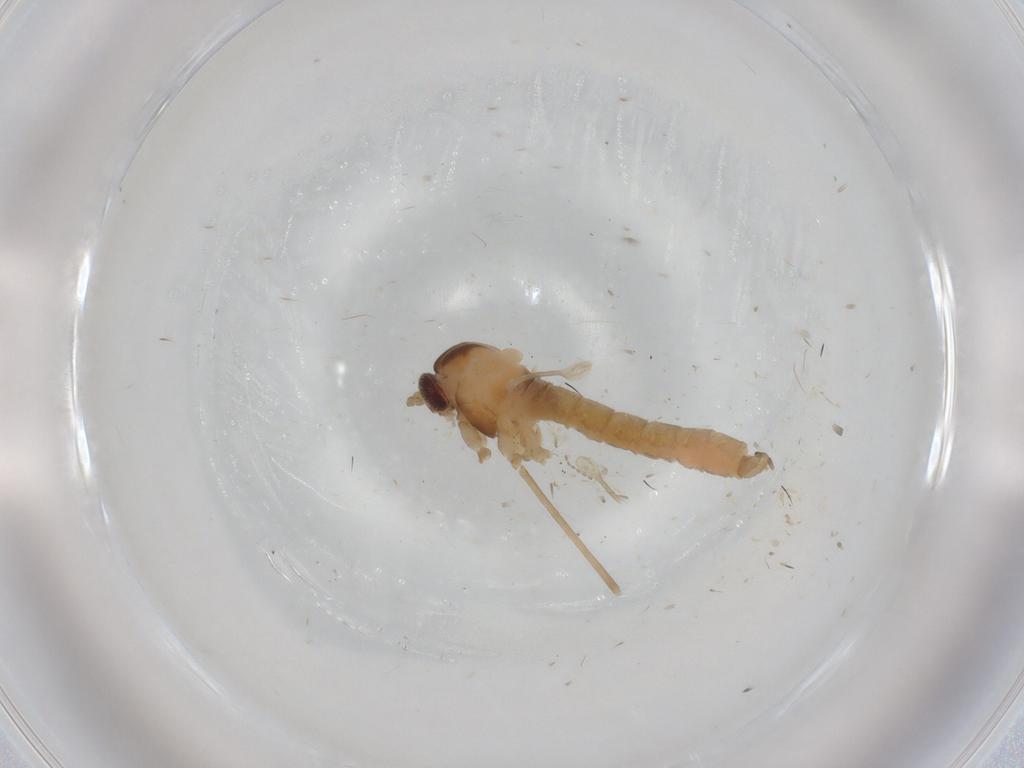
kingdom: Animalia
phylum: Arthropoda
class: Insecta
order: Diptera
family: Cecidomyiidae
